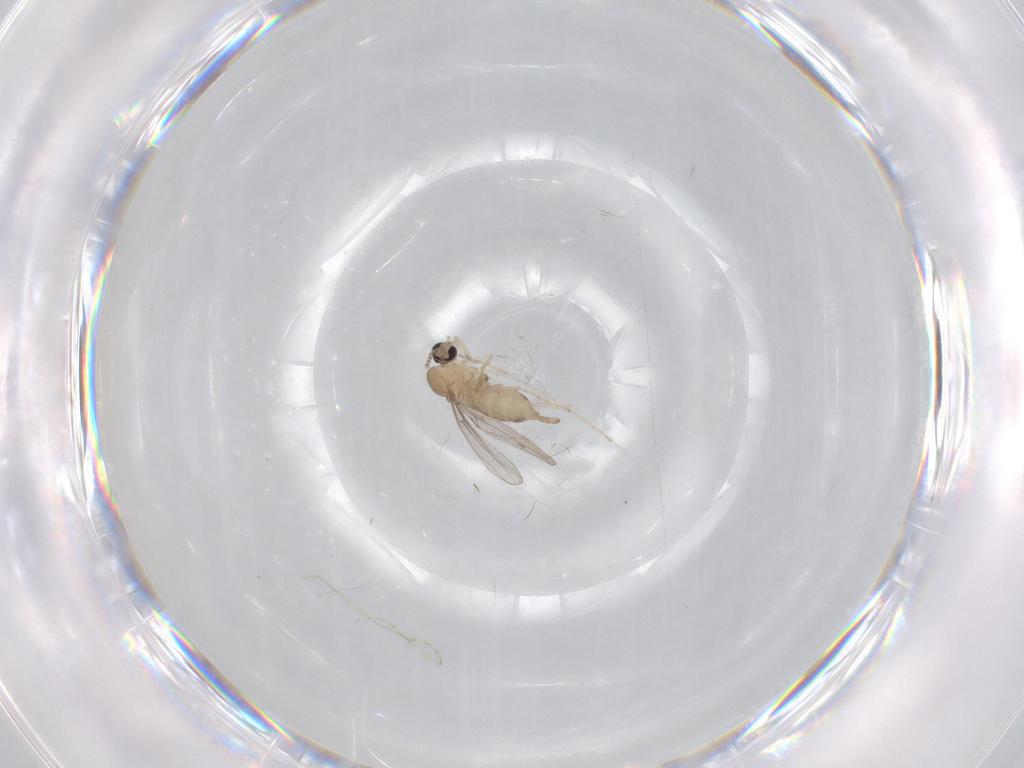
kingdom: Animalia
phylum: Arthropoda
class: Insecta
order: Diptera
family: Cecidomyiidae
